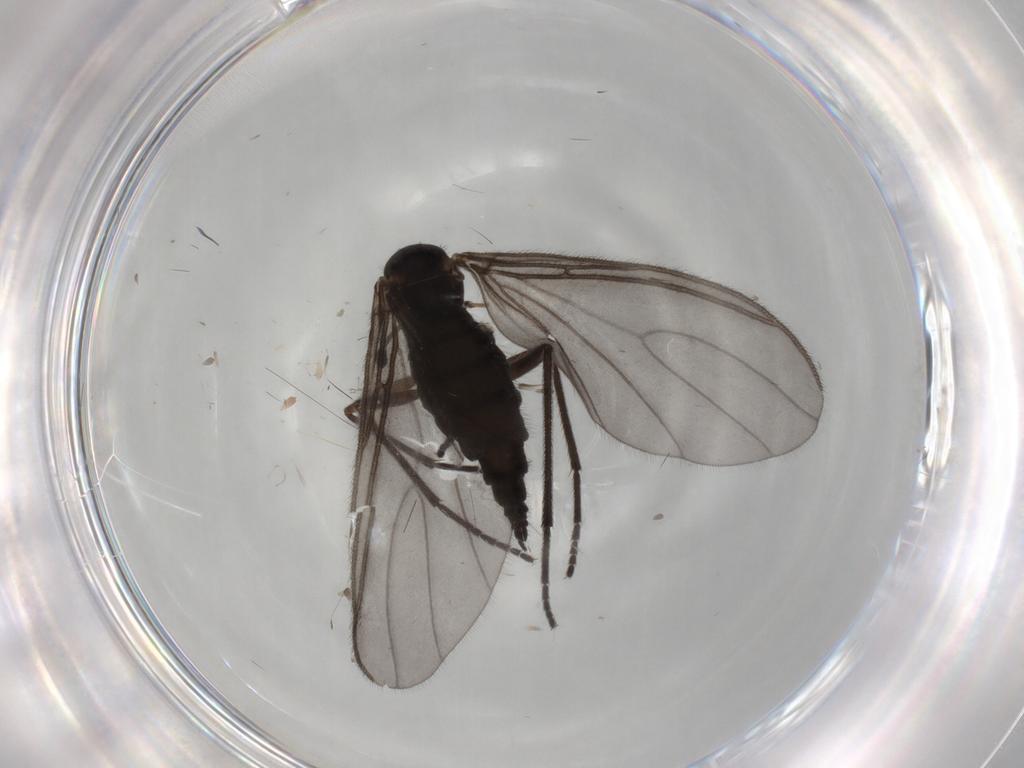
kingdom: Animalia
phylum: Arthropoda
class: Insecta
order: Diptera
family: Sciaridae
